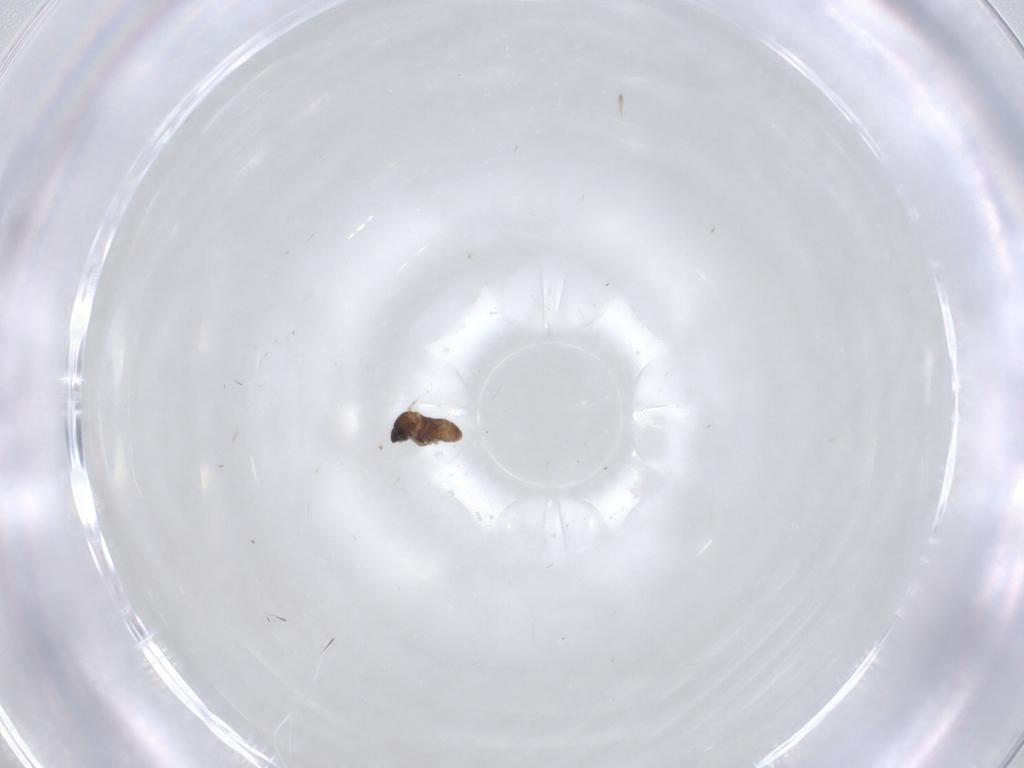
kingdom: Animalia
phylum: Arthropoda
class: Insecta
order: Diptera
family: Cecidomyiidae
